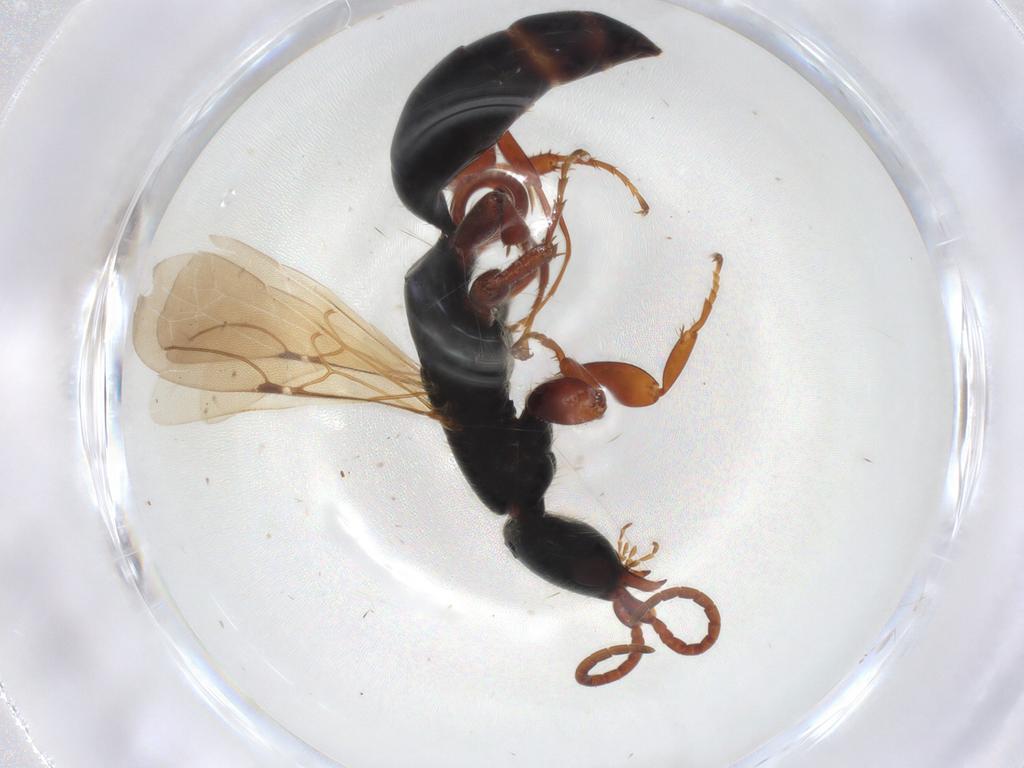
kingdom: Animalia
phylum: Arthropoda
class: Insecta
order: Hymenoptera
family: Bethylidae
